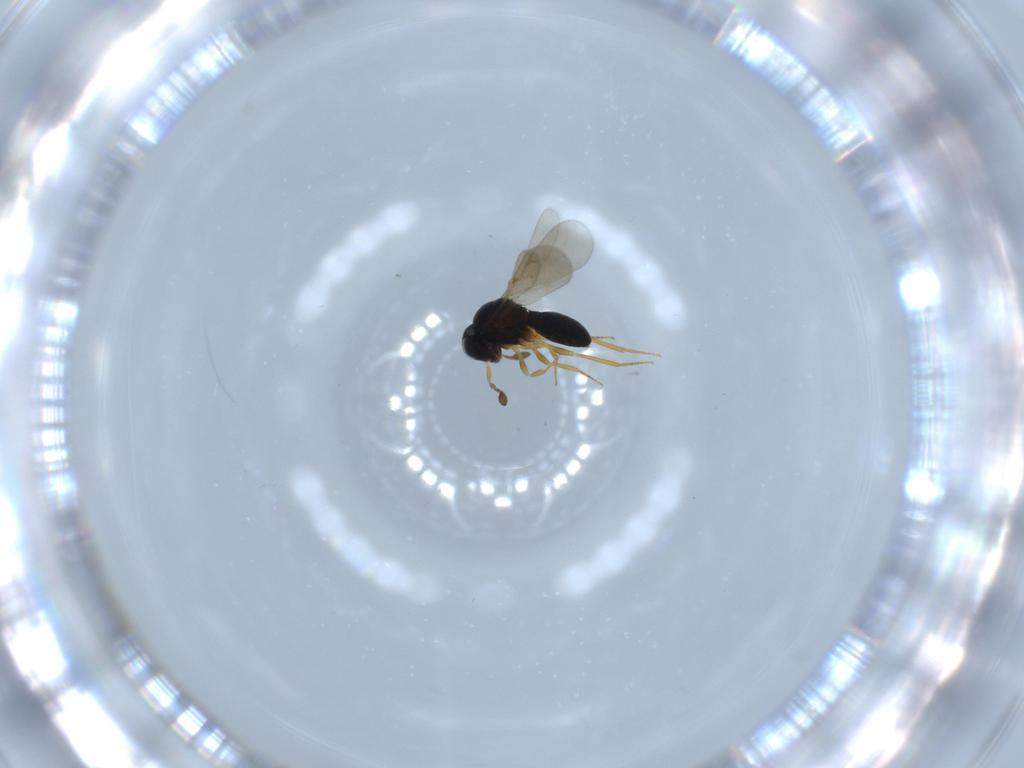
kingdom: Animalia
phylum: Arthropoda
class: Insecta
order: Hymenoptera
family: Scelionidae
